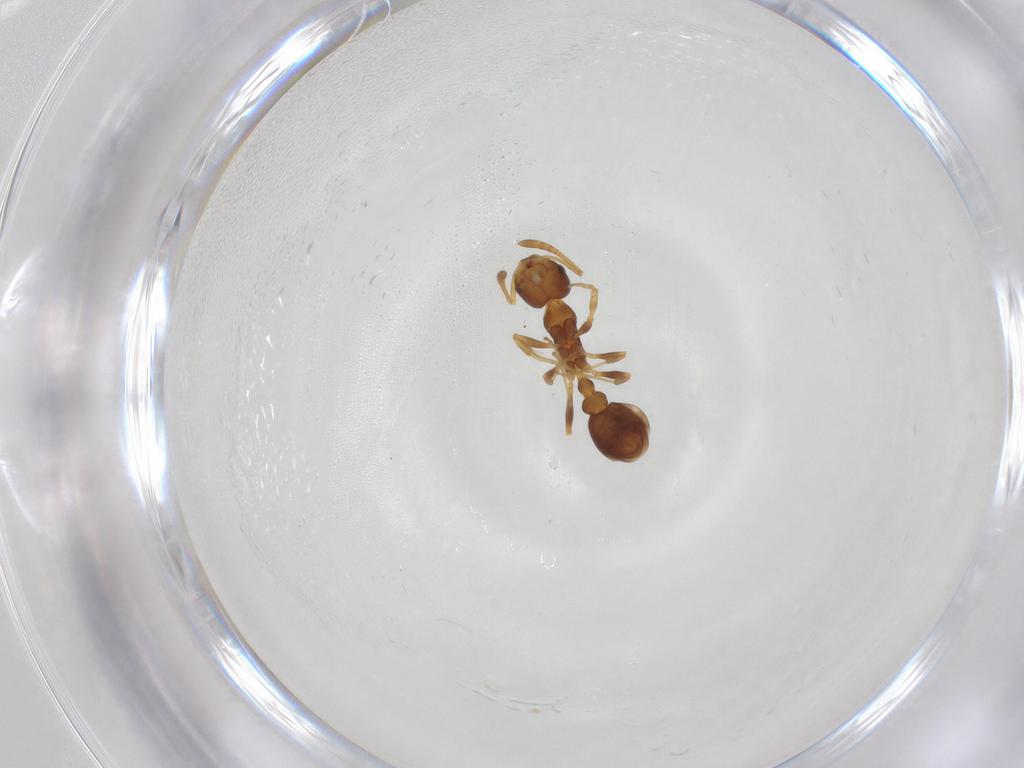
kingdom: Animalia
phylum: Arthropoda
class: Insecta
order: Hymenoptera
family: Formicidae
